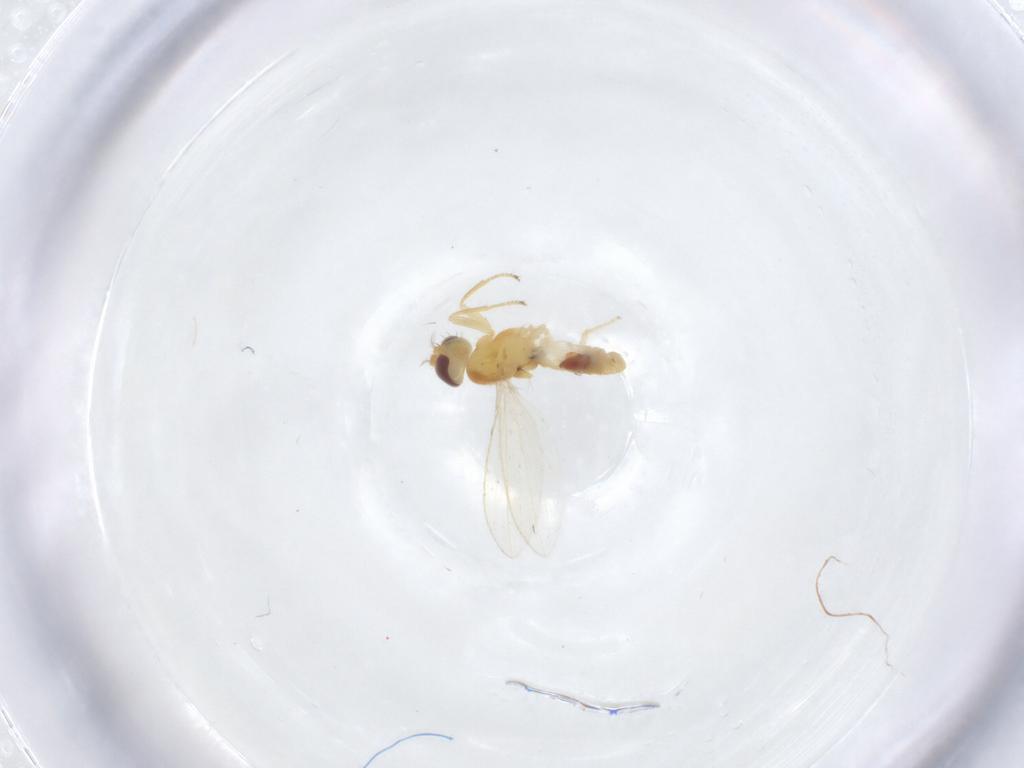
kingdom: Animalia
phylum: Arthropoda
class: Insecta
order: Diptera
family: Periscelididae
